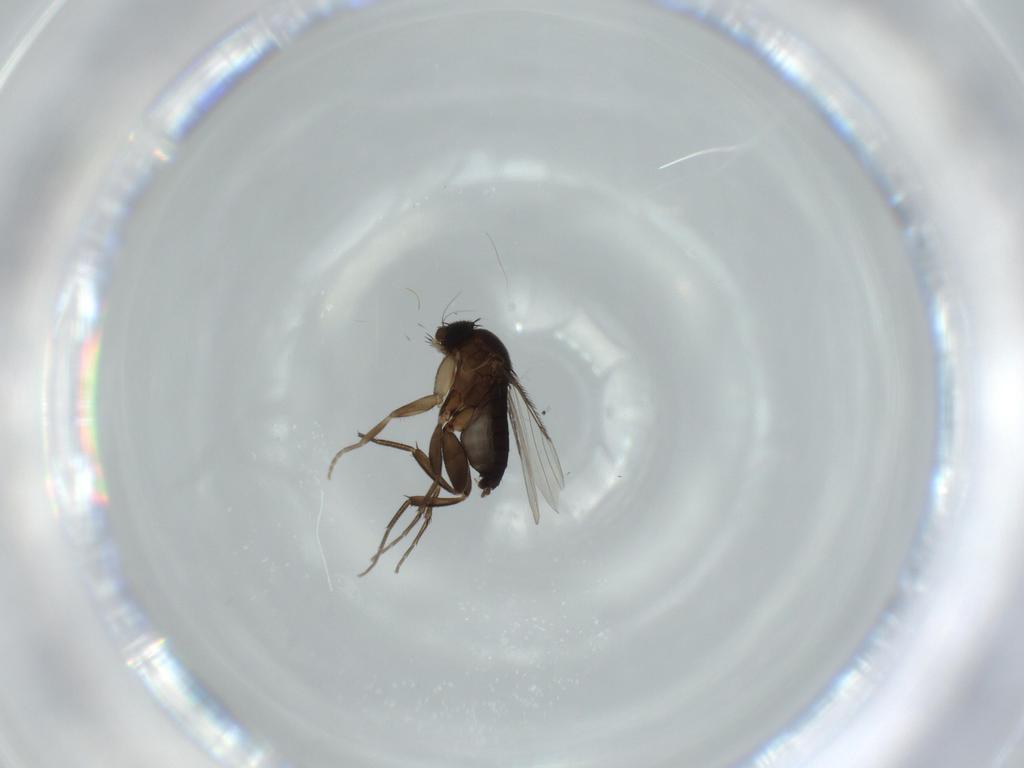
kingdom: Animalia
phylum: Arthropoda
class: Insecta
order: Diptera
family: Phoridae
